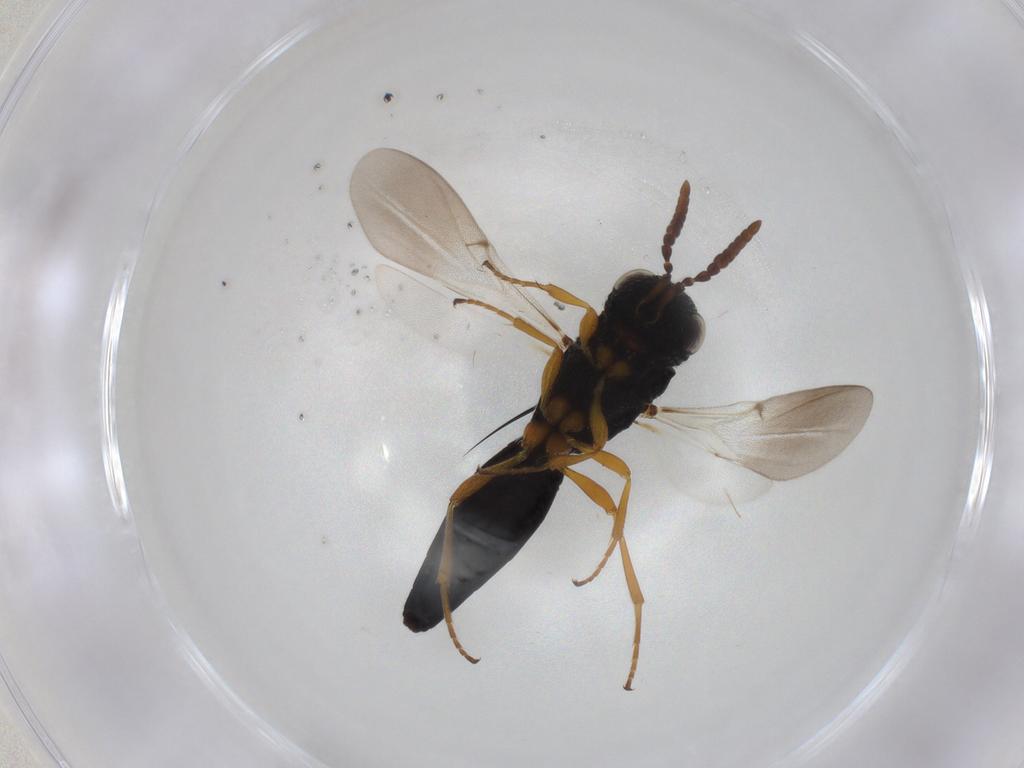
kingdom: Animalia
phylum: Arthropoda
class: Insecta
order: Hymenoptera
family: Scelionidae
